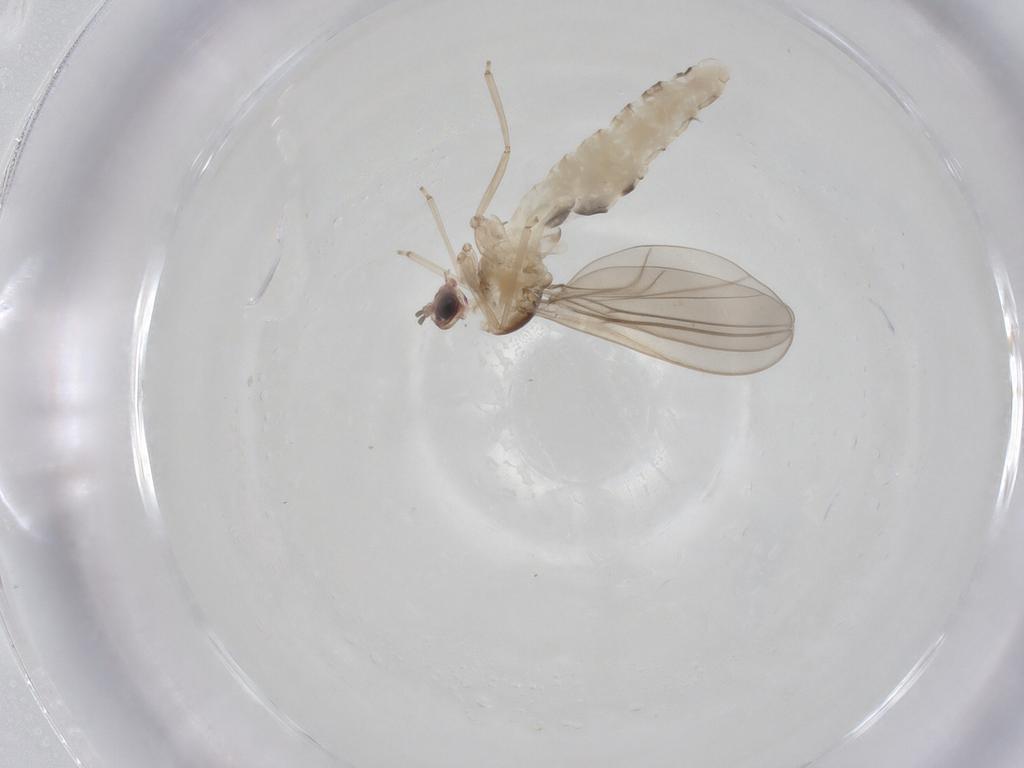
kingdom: Animalia
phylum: Arthropoda
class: Insecta
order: Diptera
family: Cecidomyiidae
